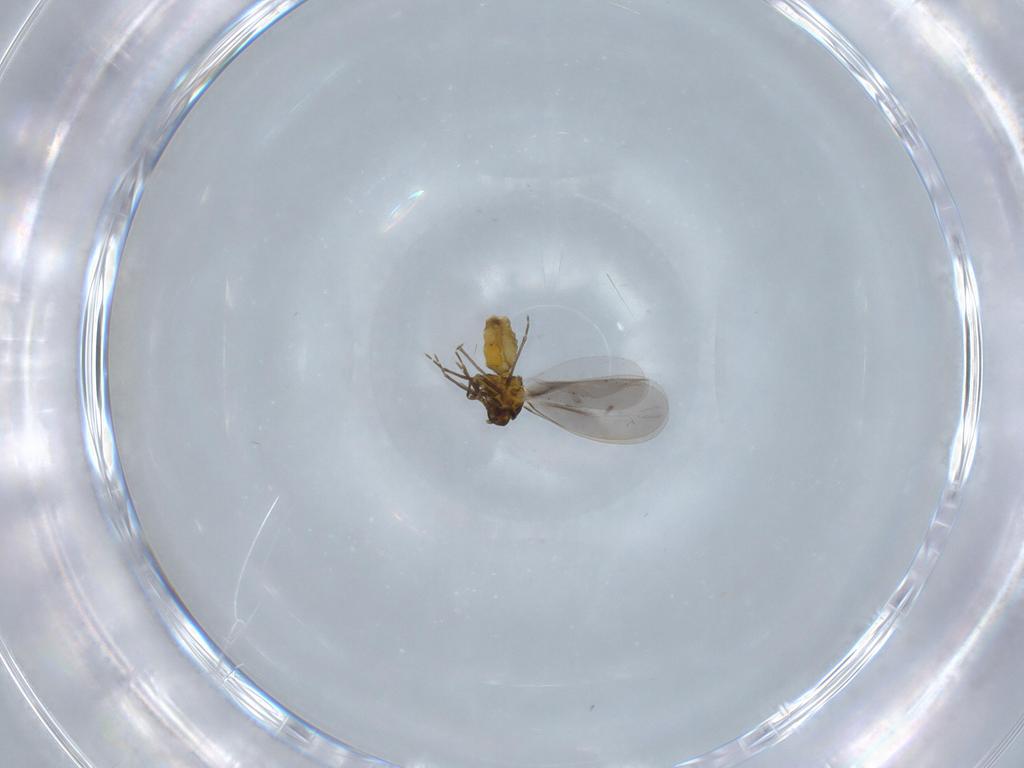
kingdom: Animalia
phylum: Arthropoda
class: Insecta
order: Hemiptera
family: Aleyrodidae
